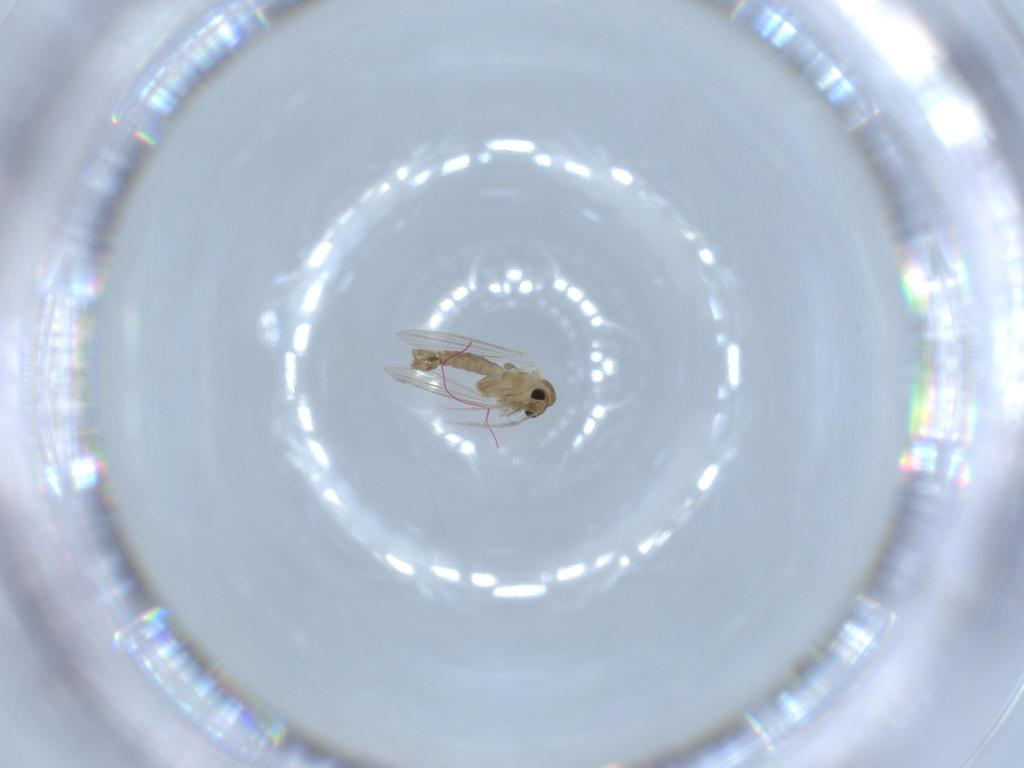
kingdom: Animalia
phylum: Arthropoda
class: Insecta
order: Diptera
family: Psychodidae
